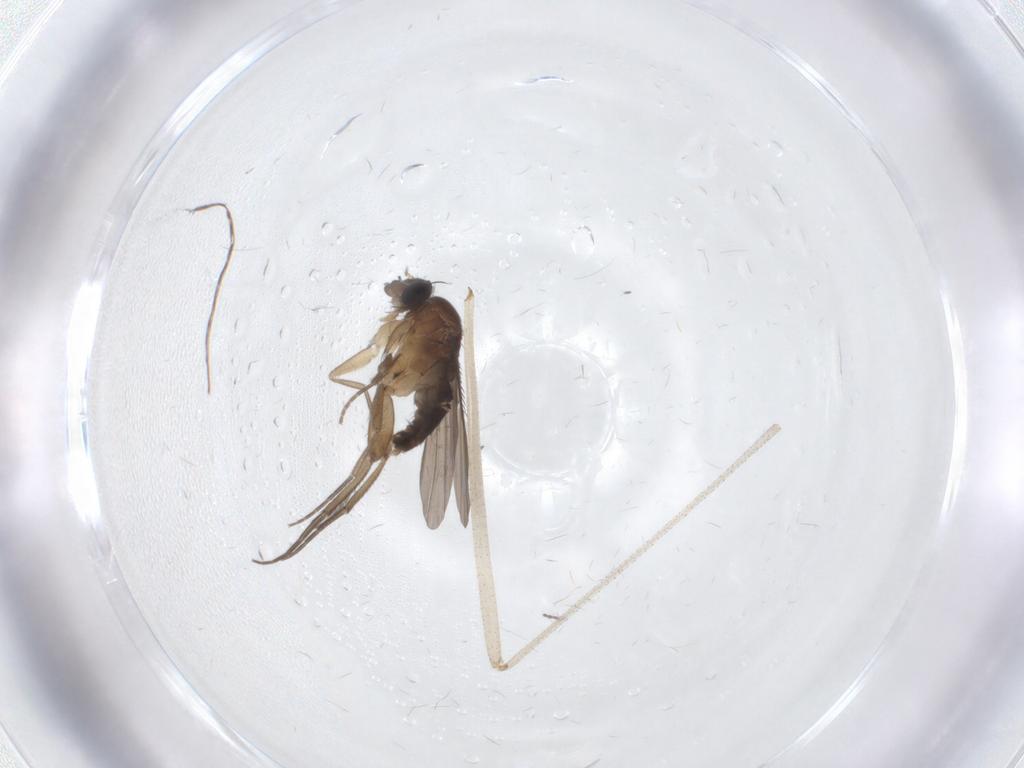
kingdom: Animalia
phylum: Arthropoda
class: Insecta
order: Diptera
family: Phoridae
